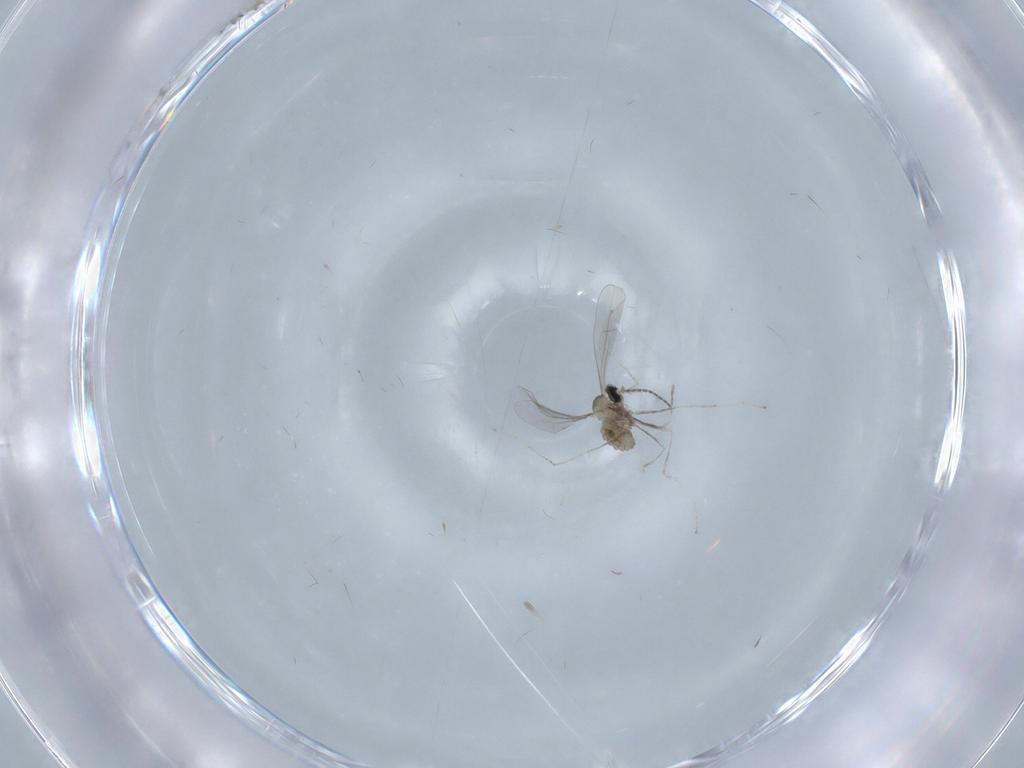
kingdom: Animalia
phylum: Arthropoda
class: Insecta
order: Diptera
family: Cecidomyiidae
